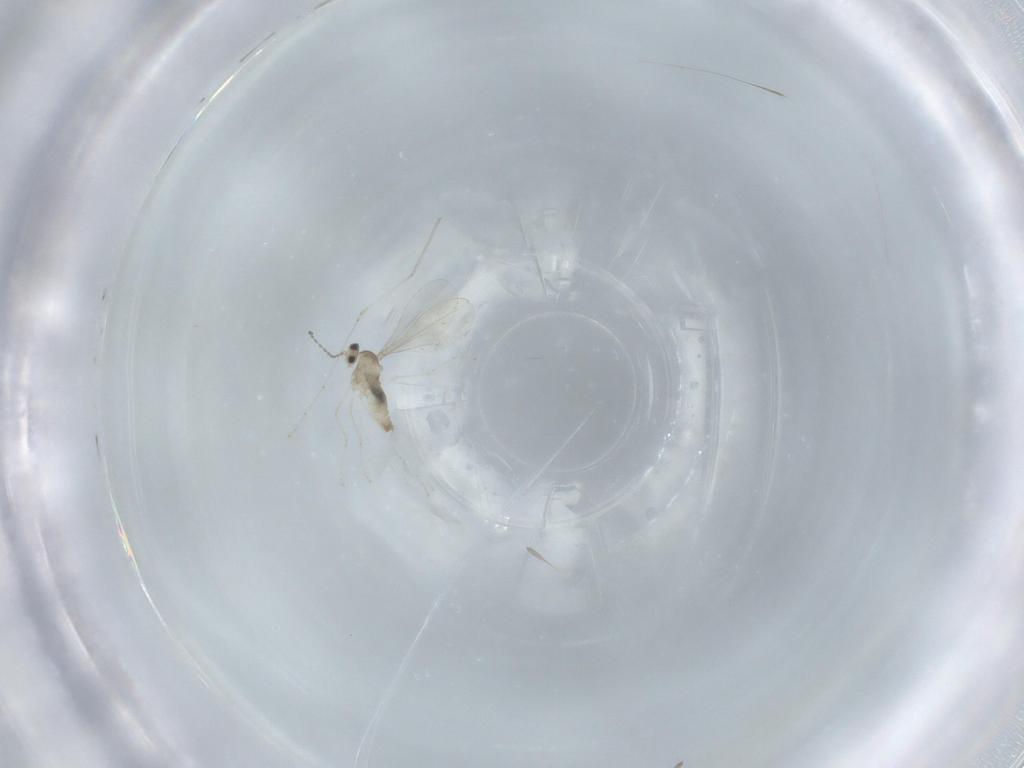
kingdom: Animalia
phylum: Arthropoda
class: Insecta
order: Diptera
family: Cecidomyiidae
